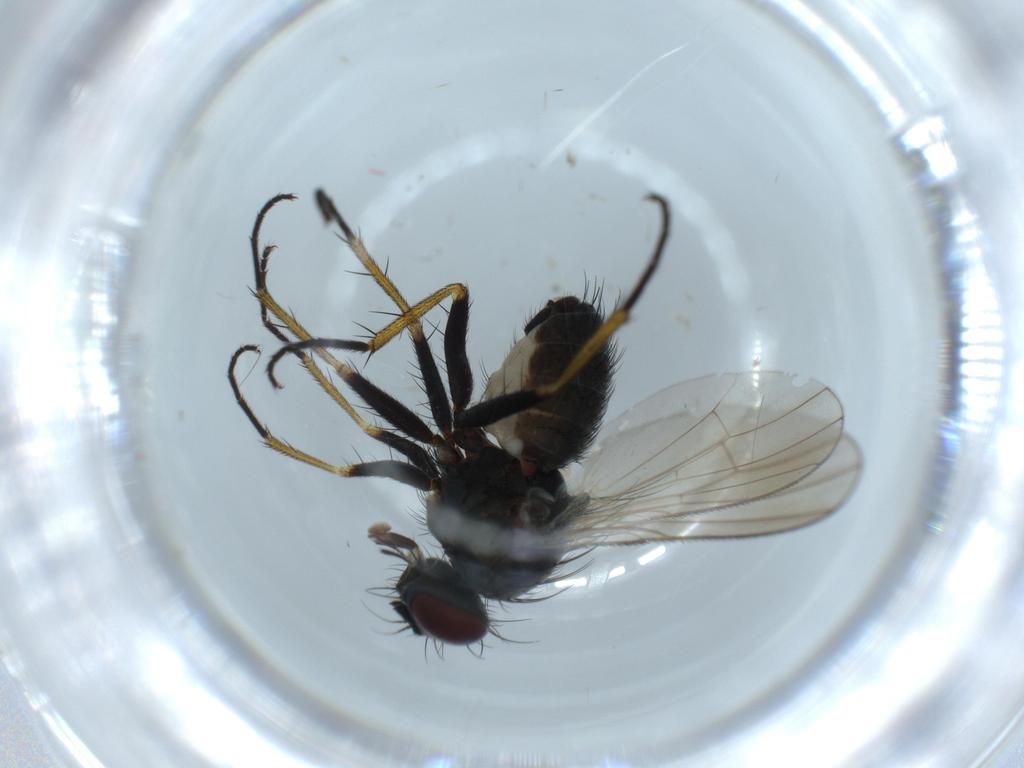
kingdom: Animalia
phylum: Arthropoda
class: Insecta
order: Diptera
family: Muscidae
